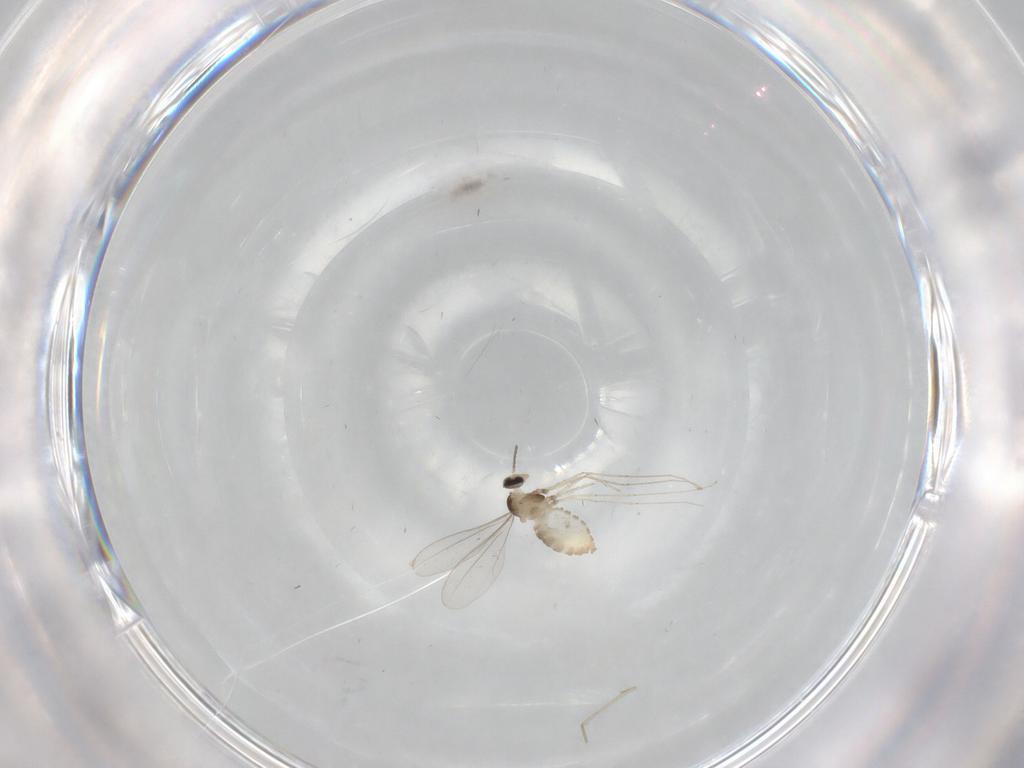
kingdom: Animalia
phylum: Arthropoda
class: Insecta
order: Diptera
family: Cecidomyiidae
